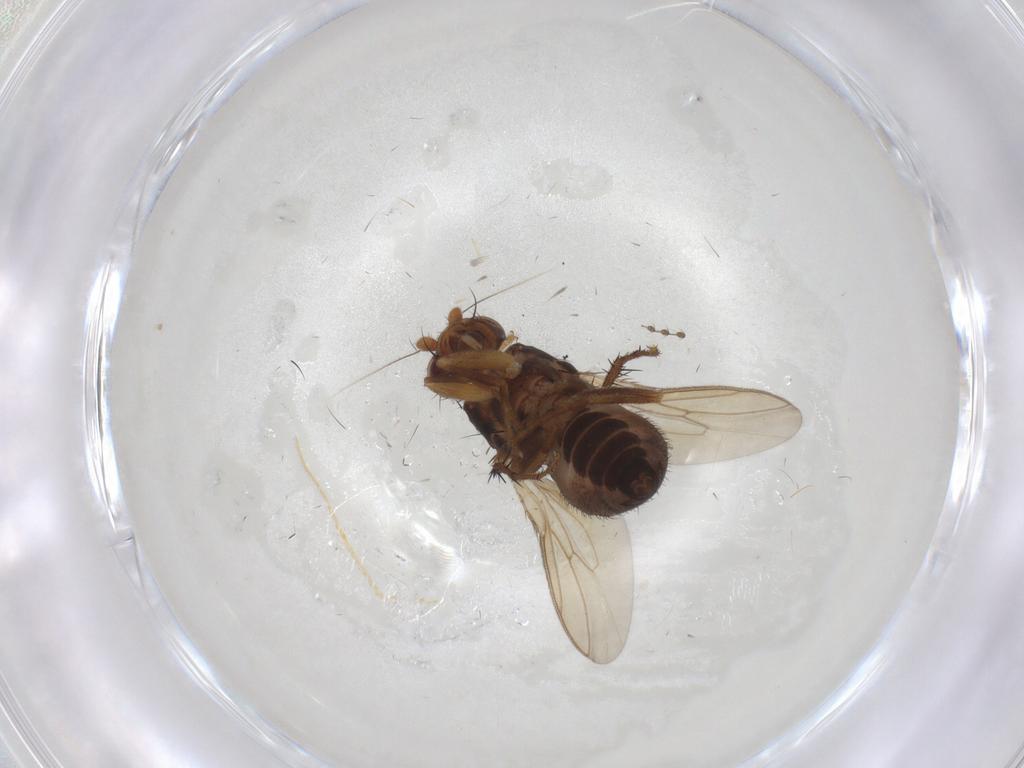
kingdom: Animalia
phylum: Arthropoda
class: Insecta
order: Diptera
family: Sphaeroceridae
